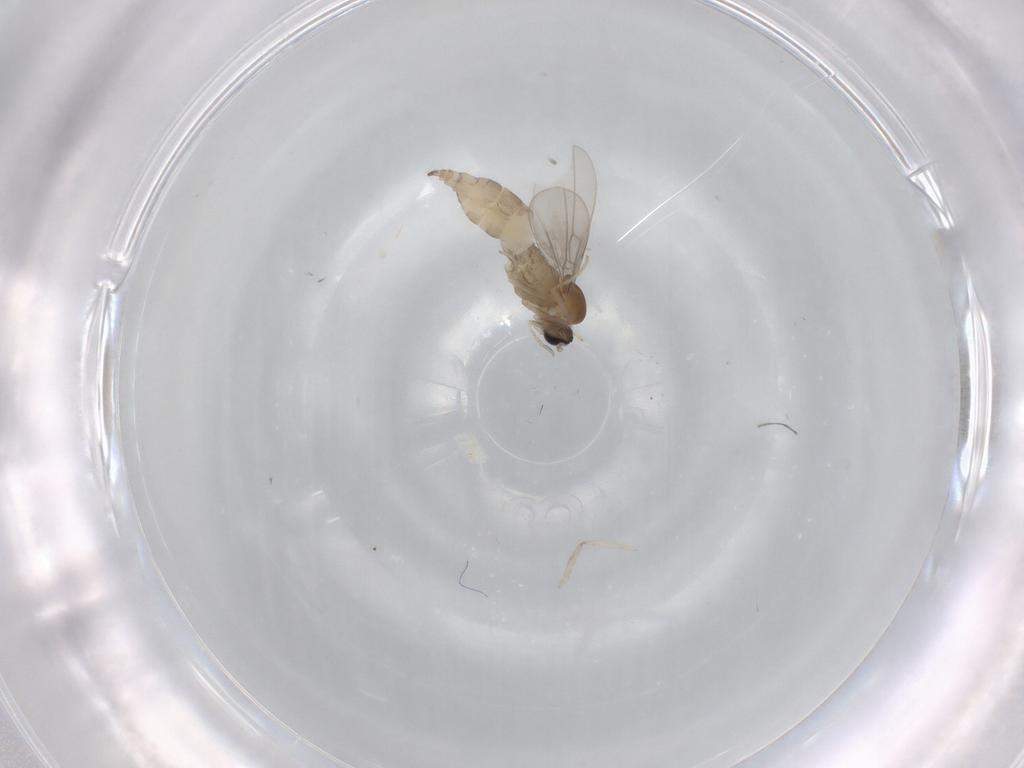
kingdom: Animalia
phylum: Arthropoda
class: Insecta
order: Diptera
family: Cecidomyiidae
